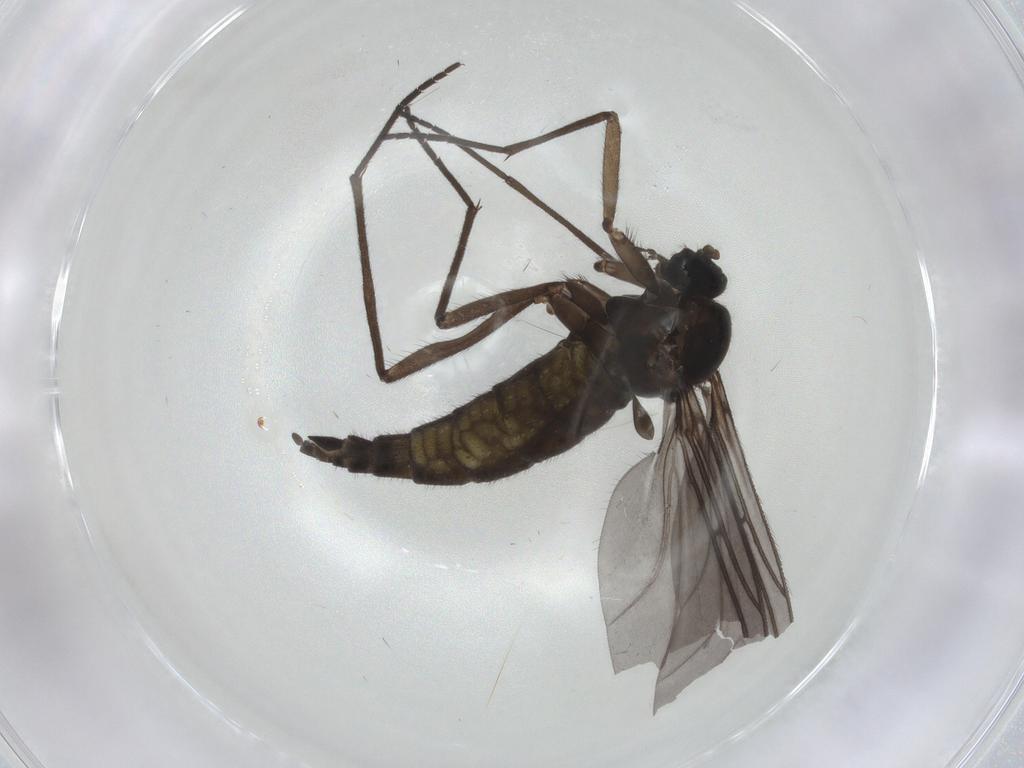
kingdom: Animalia
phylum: Arthropoda
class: Insecta
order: Diptera
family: Sciaridae
